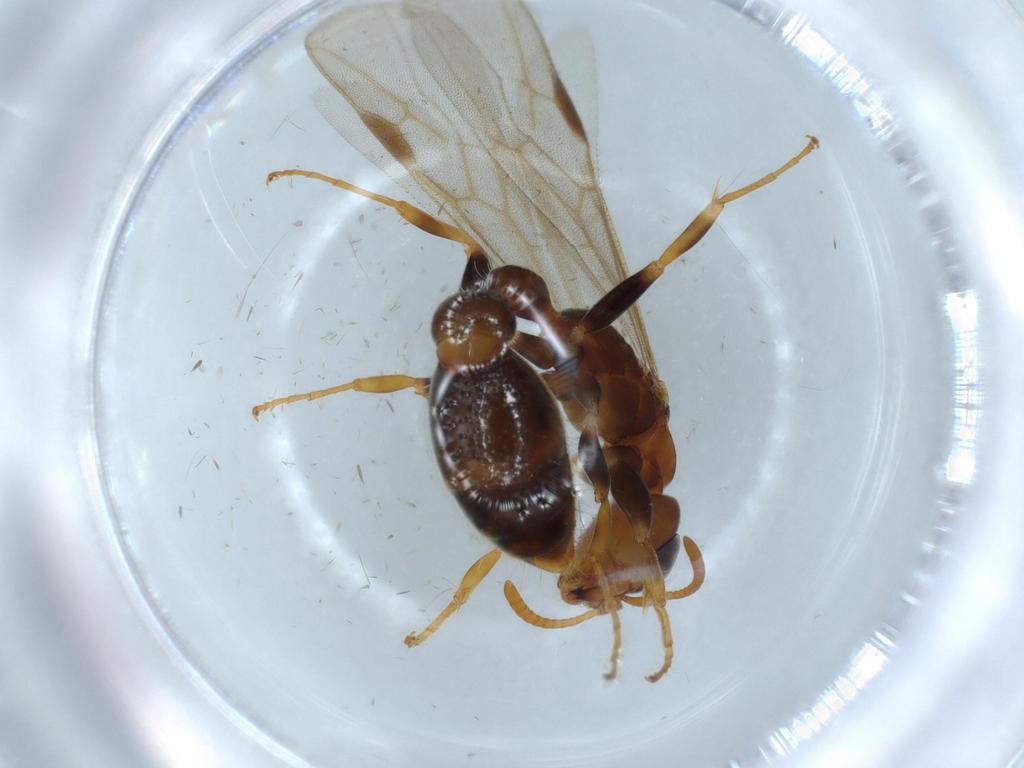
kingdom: Animalia
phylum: Arthropoda
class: Insecta
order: Hymenoptera
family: Formicidae
